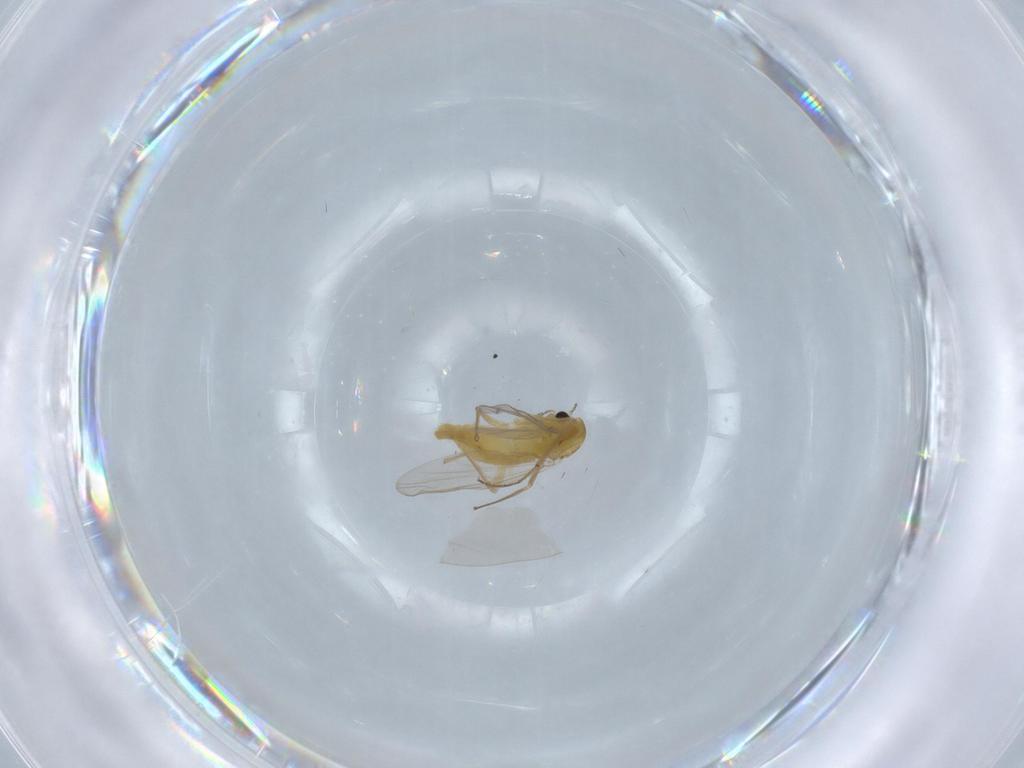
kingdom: Animalia
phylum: Arthropoda
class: Insecta
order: Diptera
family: Chironomidae
